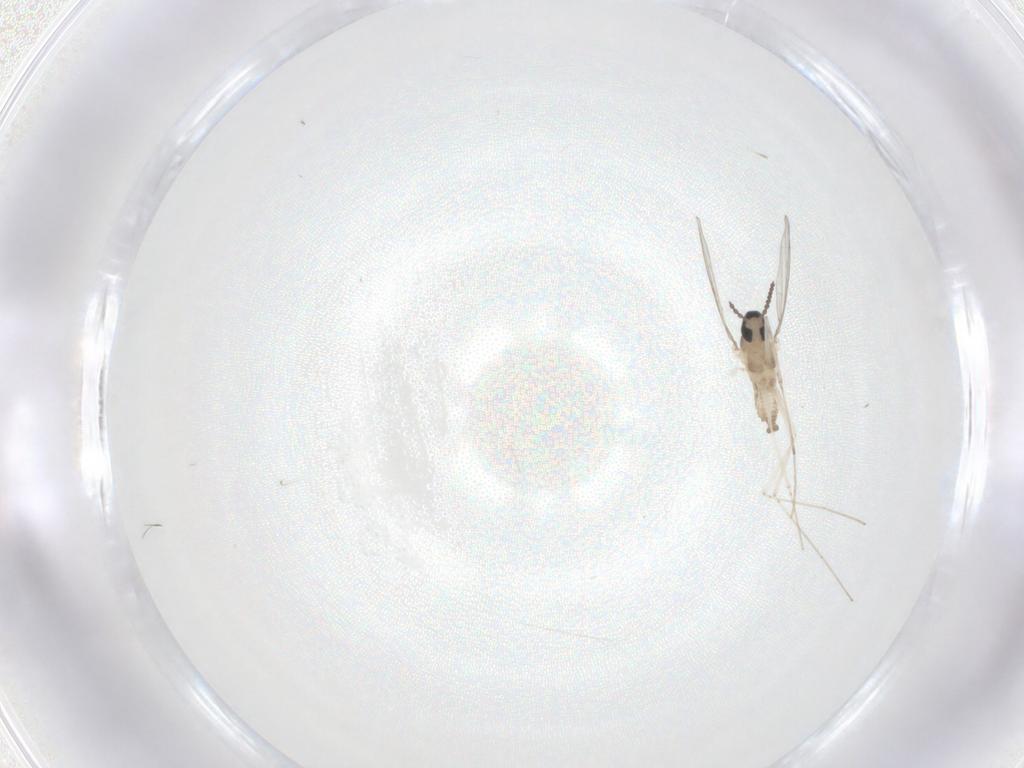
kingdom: Animalia
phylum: Arthropoda
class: Insecta
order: Diptera
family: Cecidomyiidae
